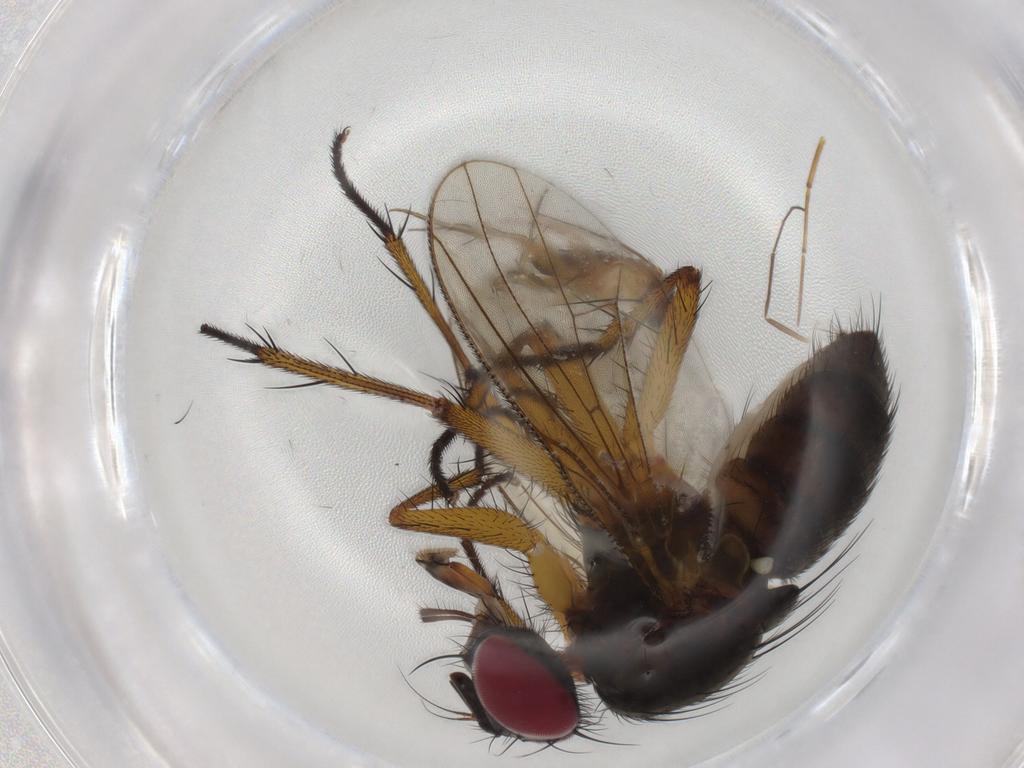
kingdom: Animalia
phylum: Arthropoda
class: Insecta
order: Diptera
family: Muscidae
